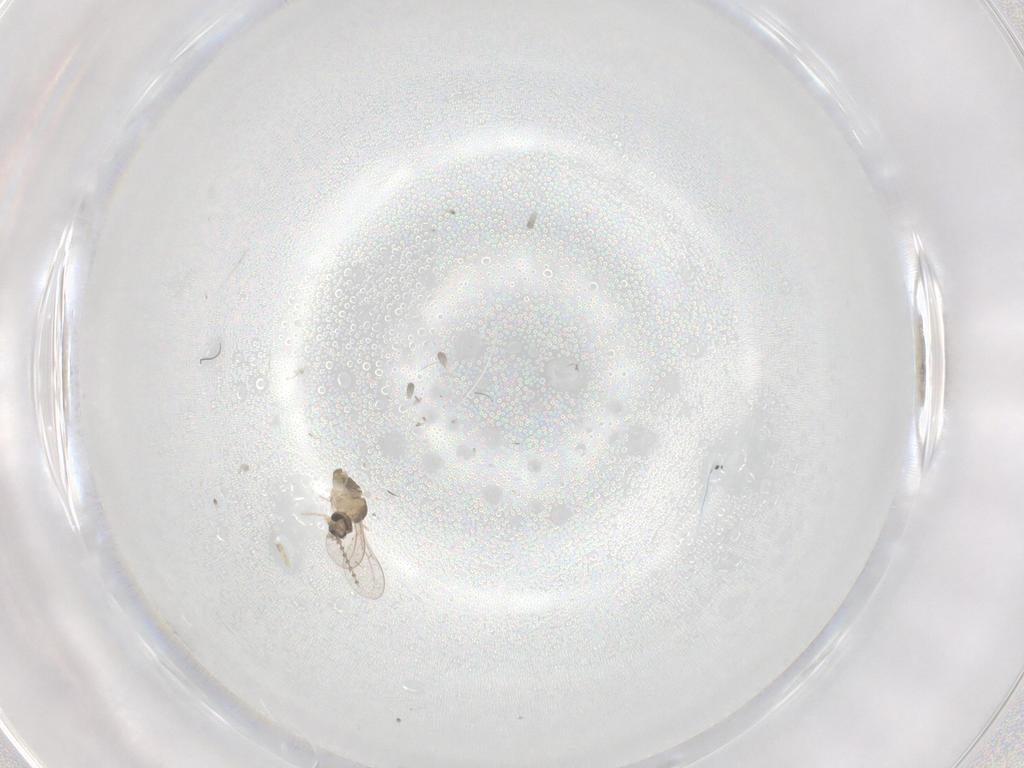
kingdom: Animalia
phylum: Arthropoda
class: Insecta
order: Diptera
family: Cecidomyiidae
